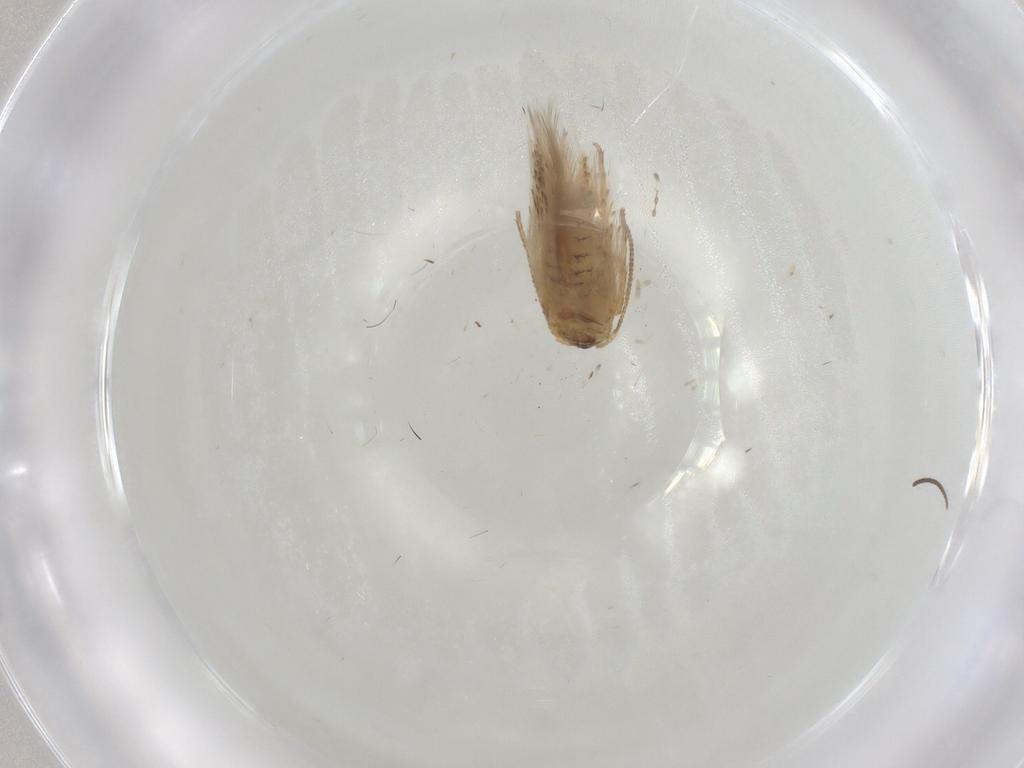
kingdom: Animalia
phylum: Arthropoda
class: Insecta
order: Lepidoptera
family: Nepticulidae
